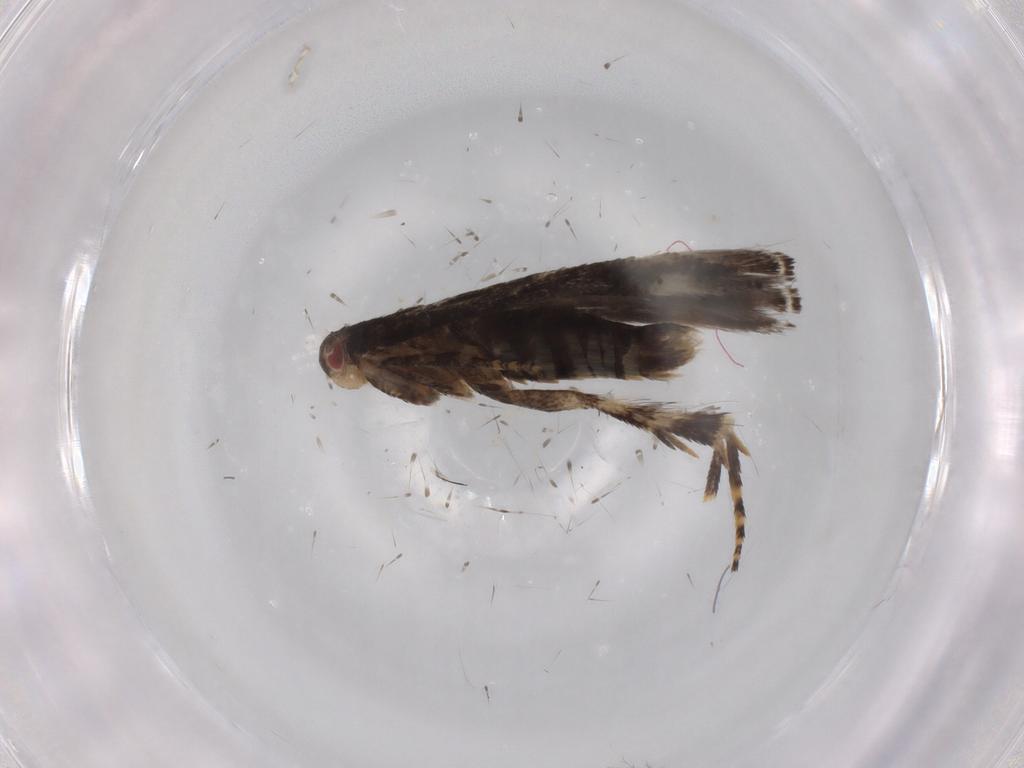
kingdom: Animalia
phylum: Arthropoda
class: Insecta
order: Lepidoptera
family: Momphidae
